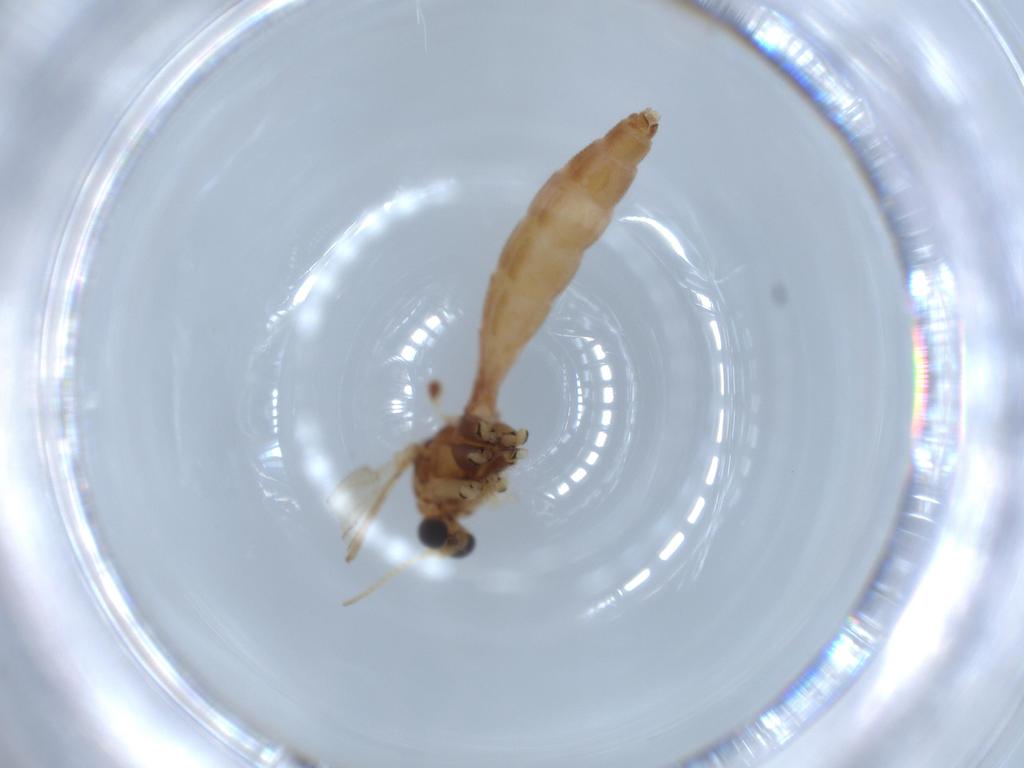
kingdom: Animalia
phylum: Arthropoda
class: Insecta
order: Diptera
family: Cecidomyiidae
